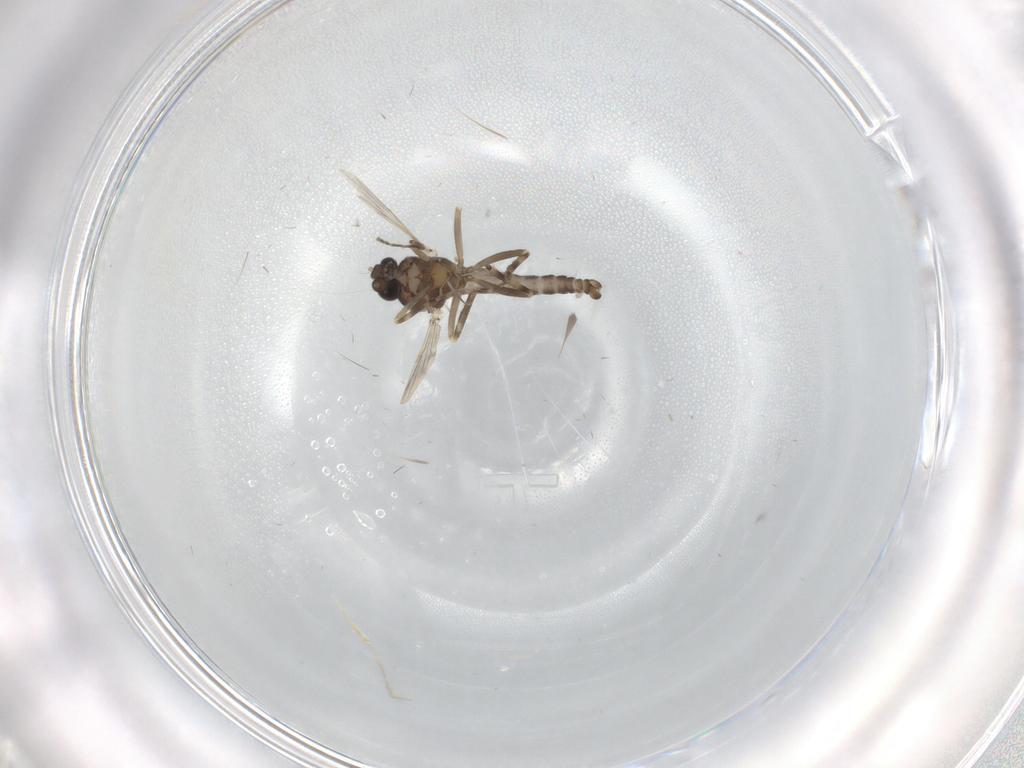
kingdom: Animalia
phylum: Arthropoda
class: Insecta
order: Diptera
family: Ceratopogonidae
